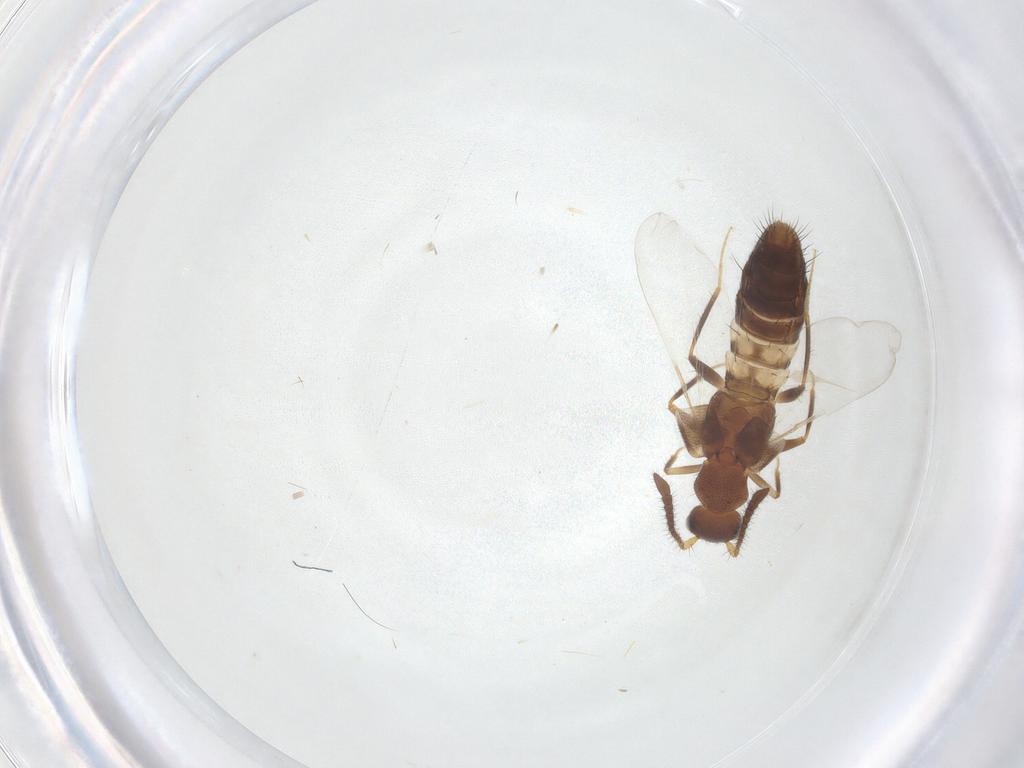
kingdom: Animalia
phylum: Arthropoda
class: Insecta
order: Coleoptera
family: Staphylinidae
